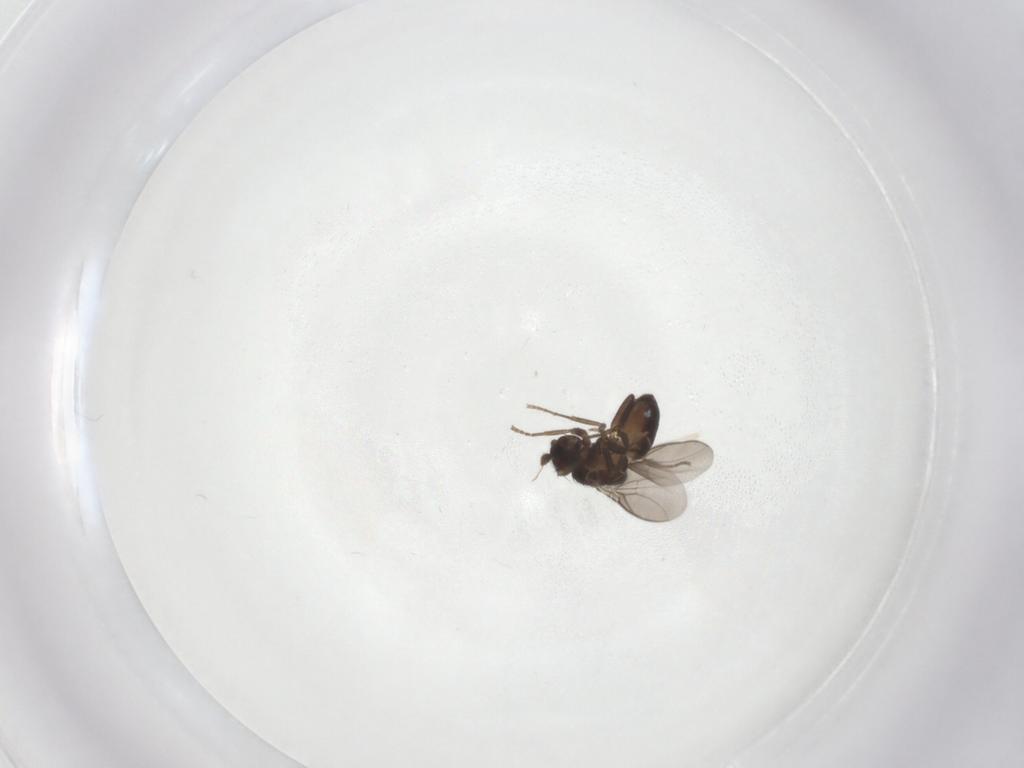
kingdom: Animalia
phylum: Arthropoda
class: Insecta
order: Diptera
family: Sphaeroceridae
